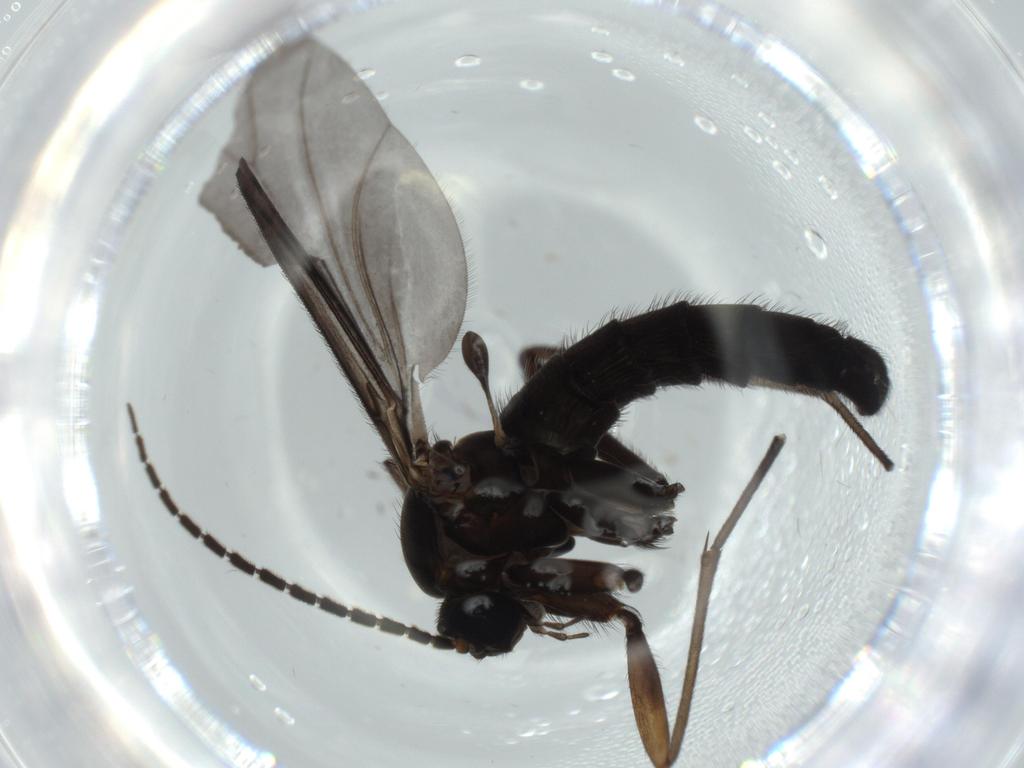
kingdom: Animalia
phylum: Arthropoda
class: Insecta
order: Diptera
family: Sciaridae
